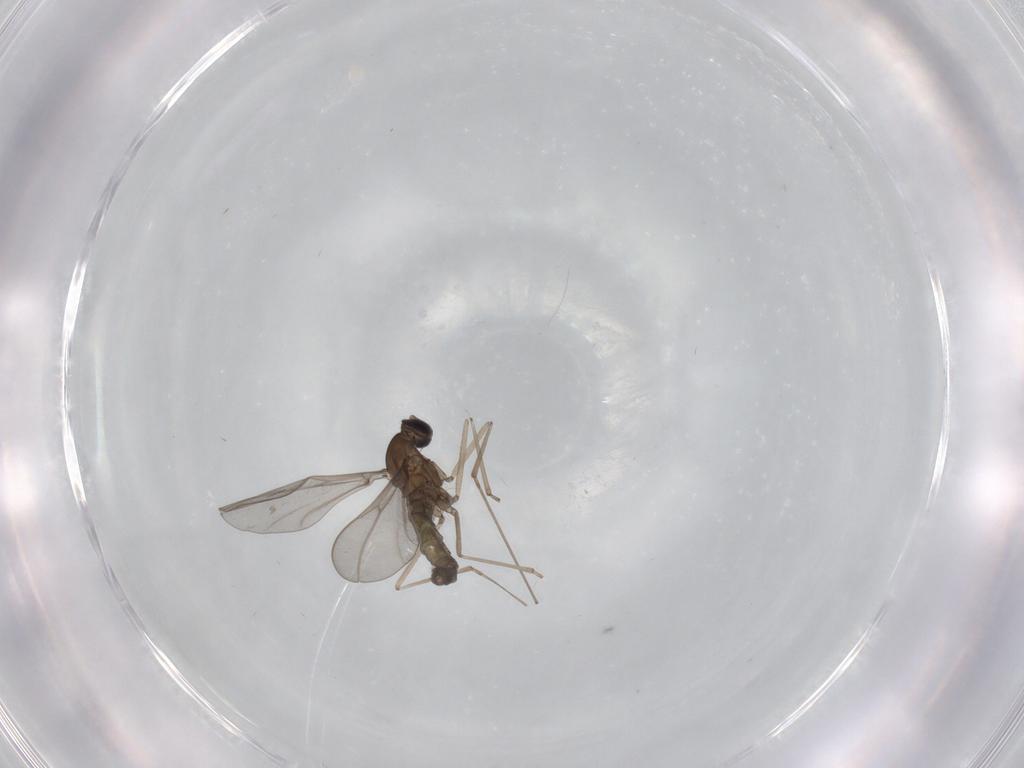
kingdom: Animalia
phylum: Arthropoda
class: Insecta
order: Diptera
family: Cecidomyiidae
